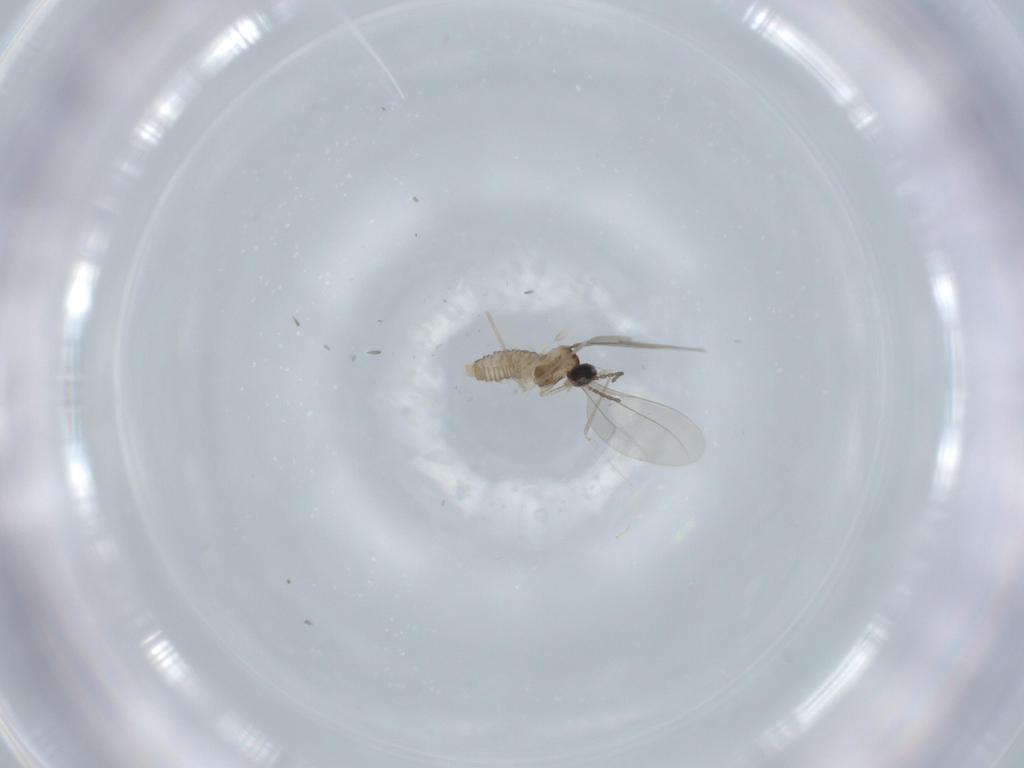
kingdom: Animalia
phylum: Arthropoda
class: Insecta
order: Diptera
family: Cecidomyiidae
